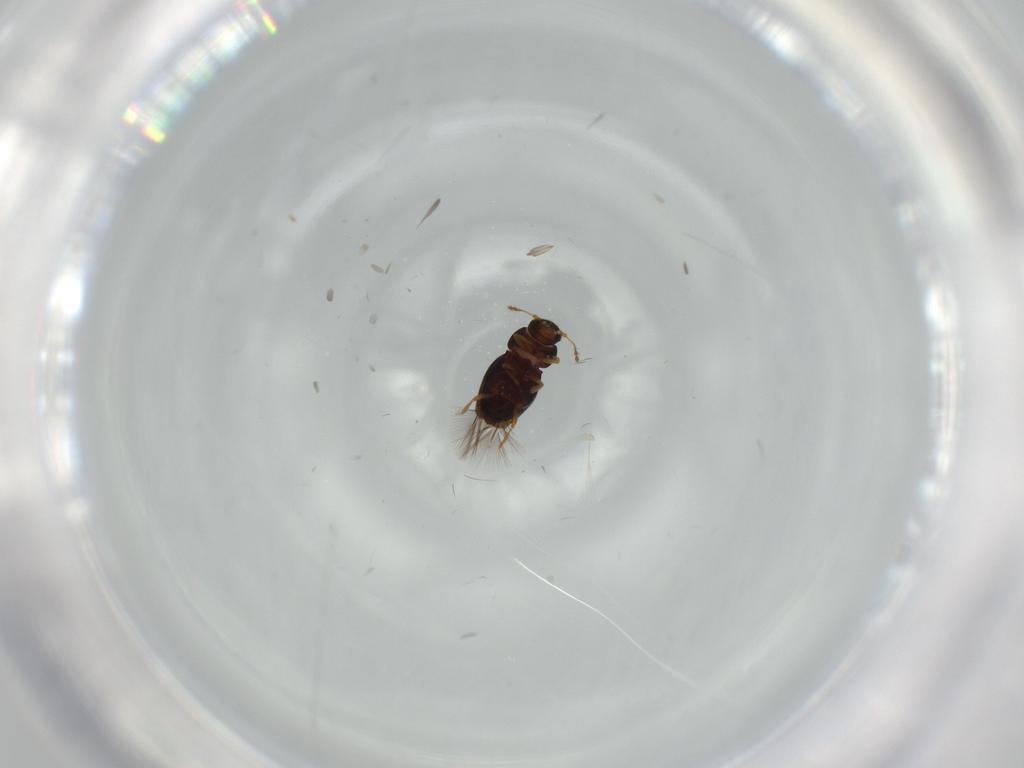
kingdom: Animalia
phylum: Arthropoda
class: Insecta
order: Coleoptera
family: Ptiliidae
